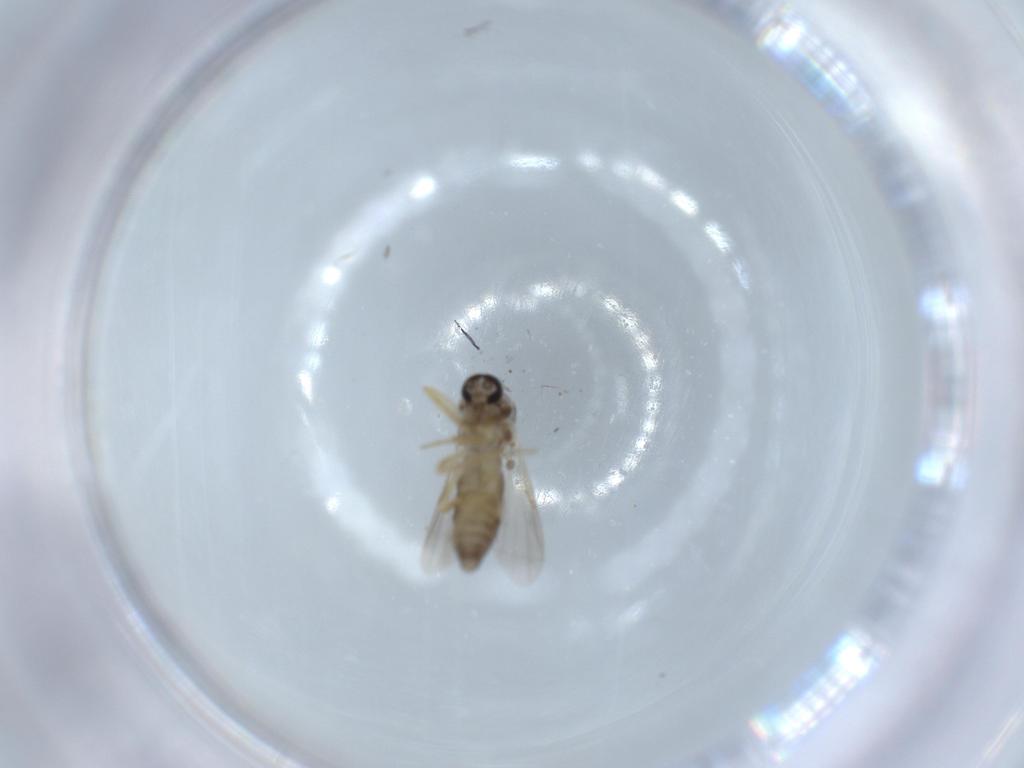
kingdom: Animalia
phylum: Arthropoda
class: Insecta
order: Diptera
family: Ceratopogonidae
